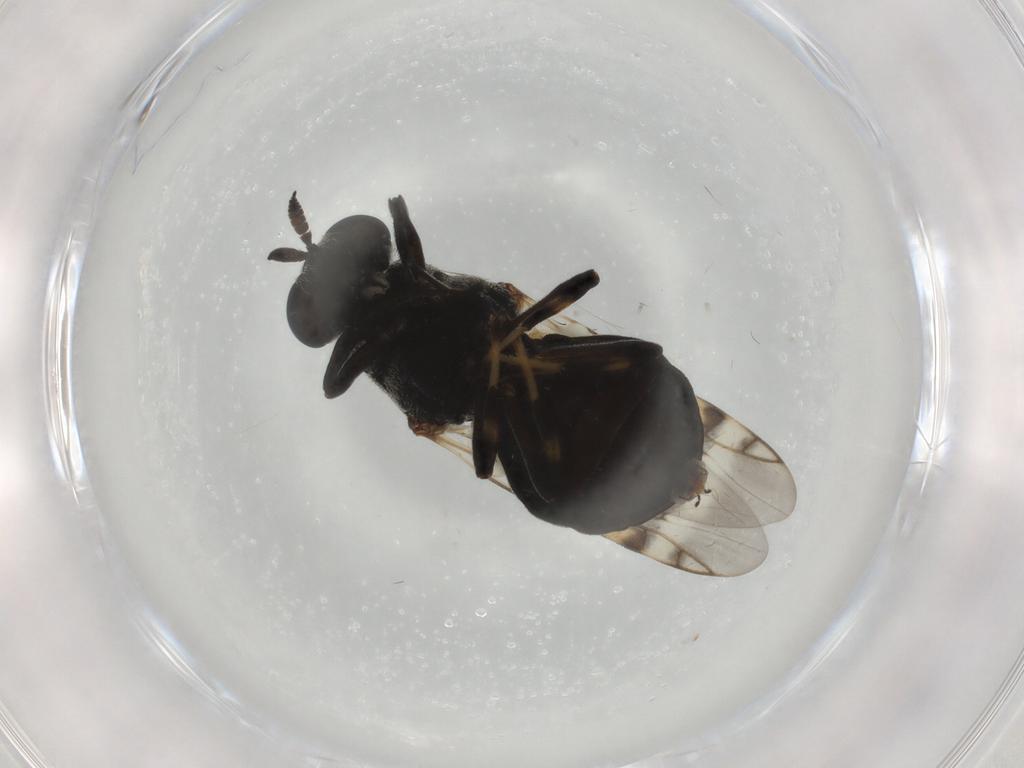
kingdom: Animalia
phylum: Arthropoda
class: Insecta
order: Diptera
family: Stratiomyidae
